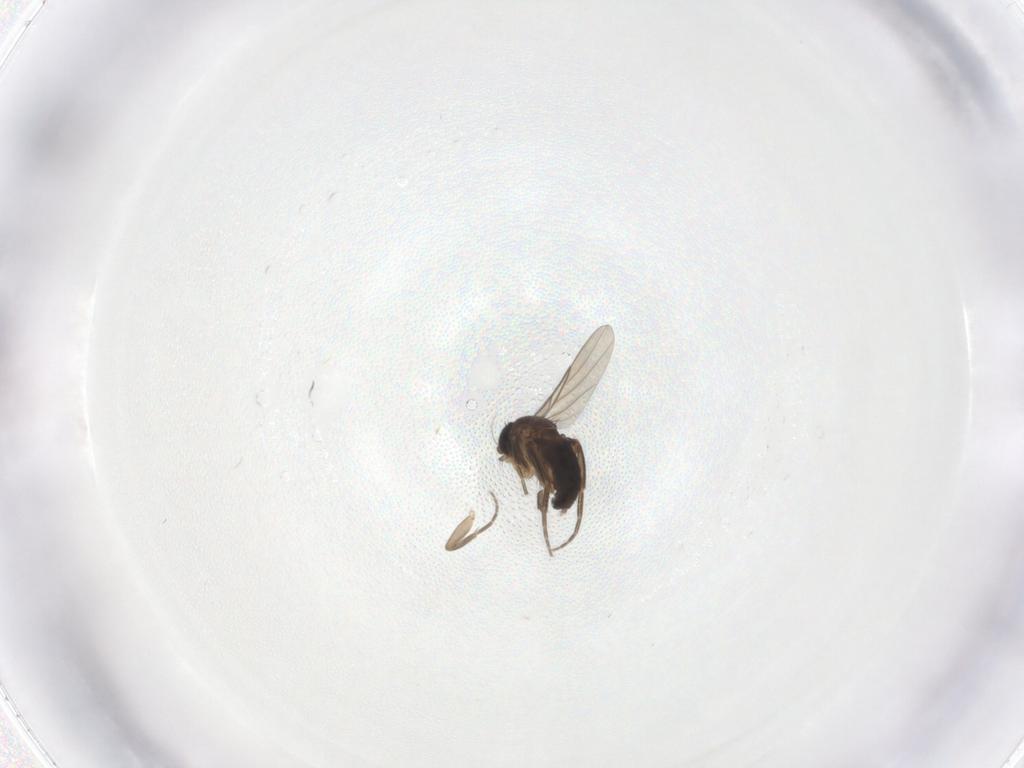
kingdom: Animalia
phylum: Arthropoda
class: Insecta
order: Diptera
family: Phoridae
